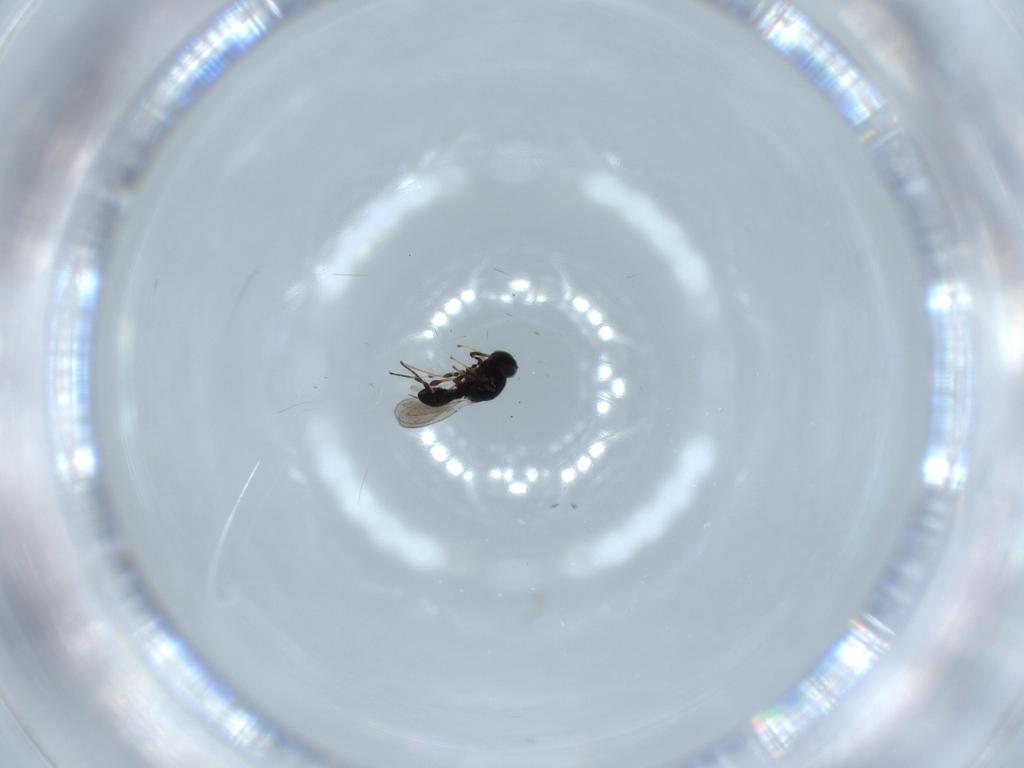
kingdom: Animalia
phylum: Arthropoda
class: Insecta
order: Hymenoptera
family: Platygastridae
